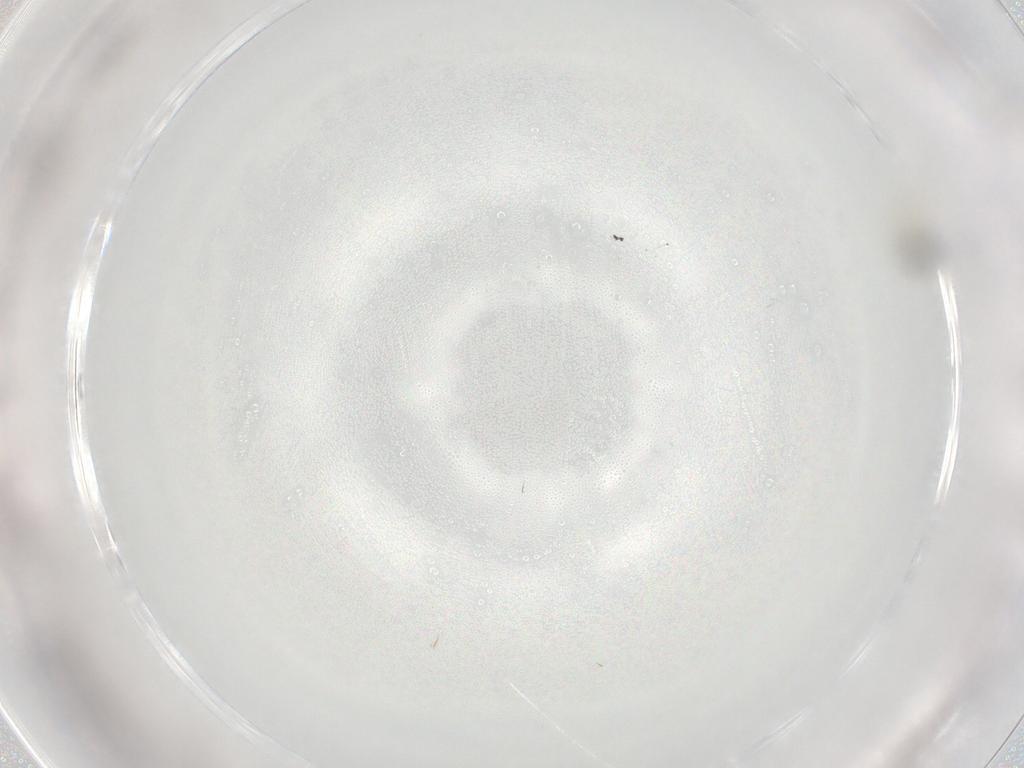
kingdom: Animalia
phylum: Arthropoda
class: Insecta
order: Diptera
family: Cecidomyiidae
